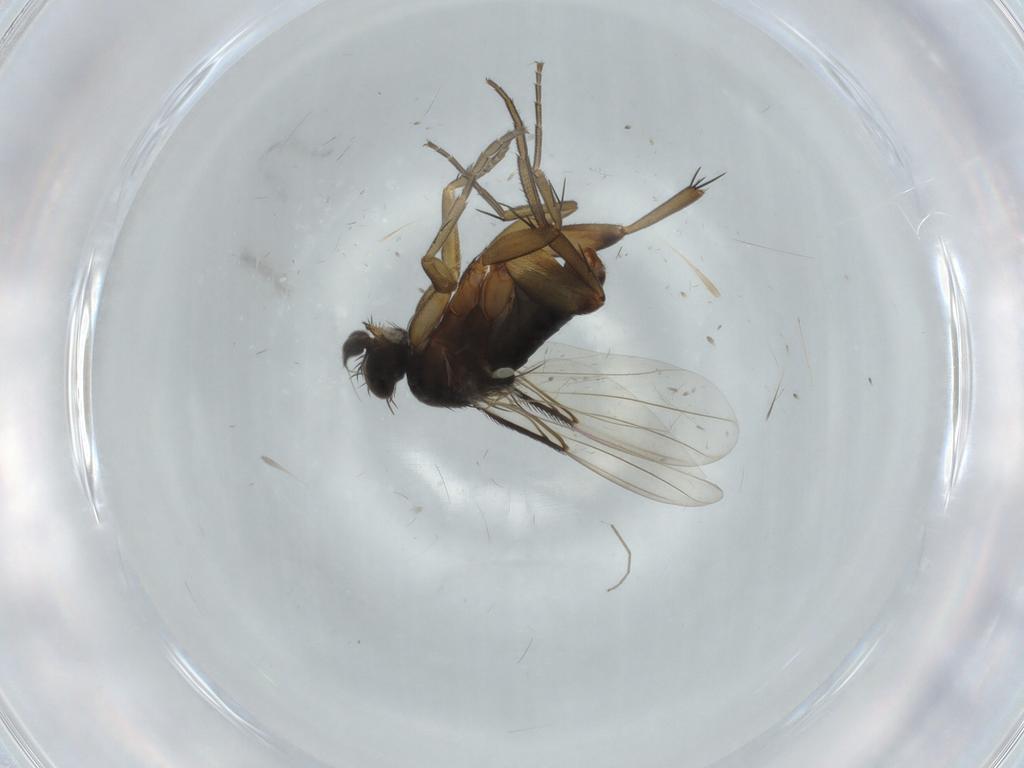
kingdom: Animalia
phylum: Arthropoda
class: Insecta
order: Diptera
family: Phoridae
